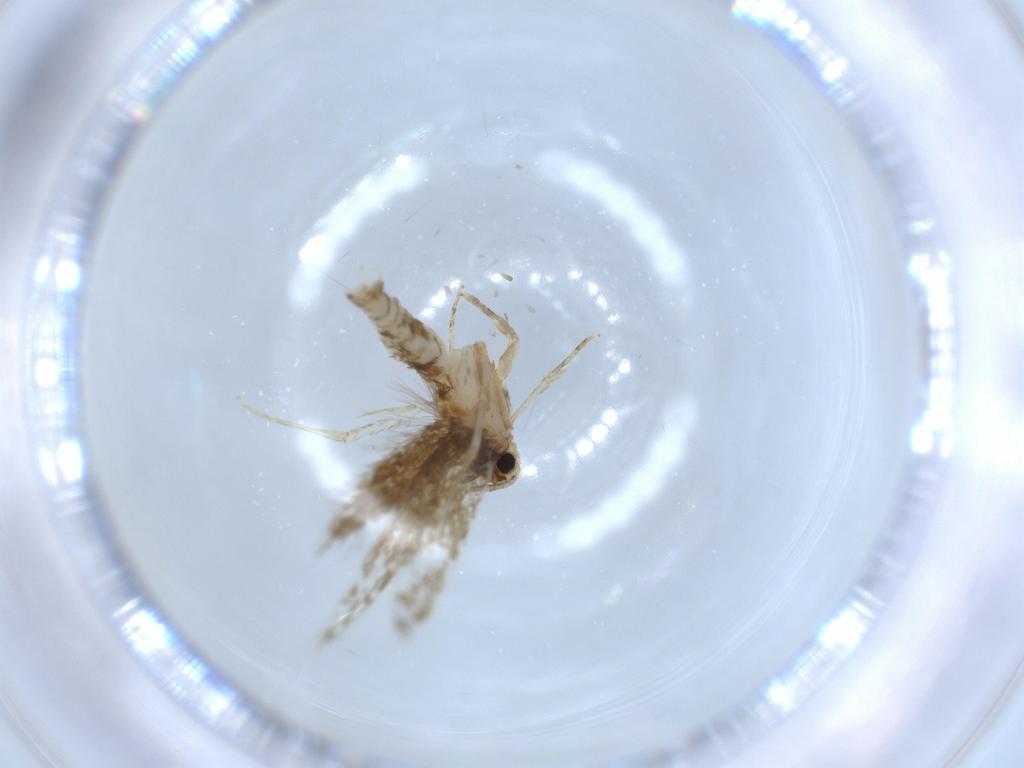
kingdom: Animalia
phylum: Arthropoda
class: Insecta
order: Lepidoptera
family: Tineidae
